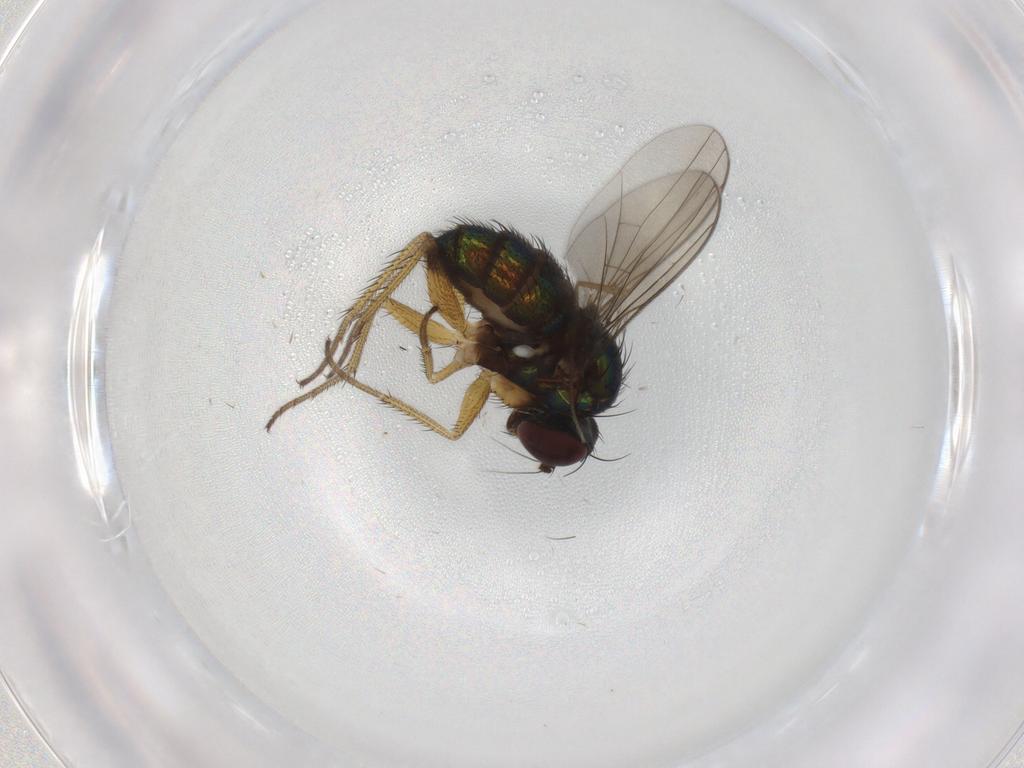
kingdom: Animalia
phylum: Arthropoda
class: Insecta
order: Diptera
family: Dolichopodidae
